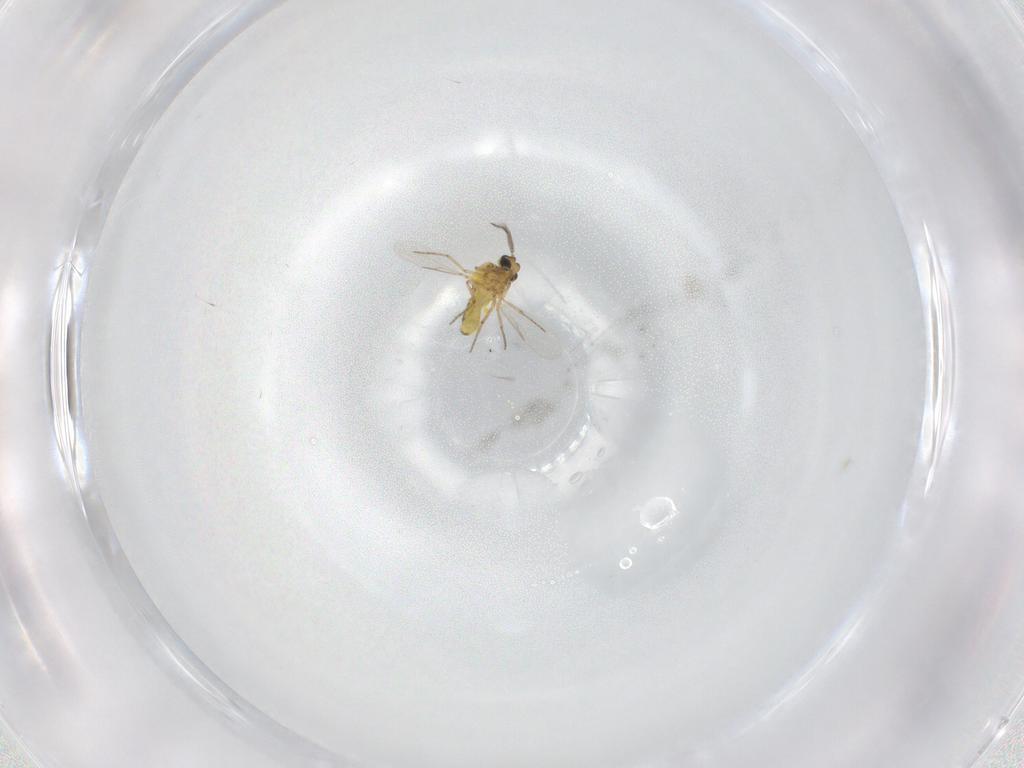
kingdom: Animalia
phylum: Arthropoda
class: Insecta
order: Diptera
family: Ceratopogonidae
